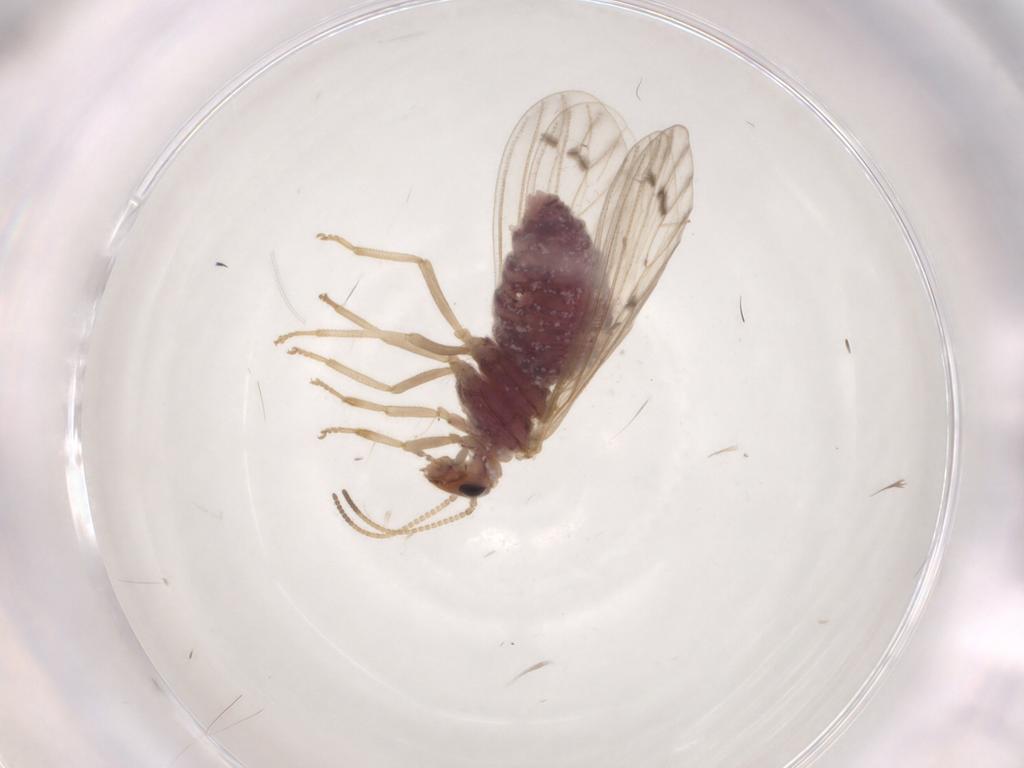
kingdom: Animalia
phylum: Arthropoda
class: Insecta
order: Neuroptera
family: Coniopterygidae
